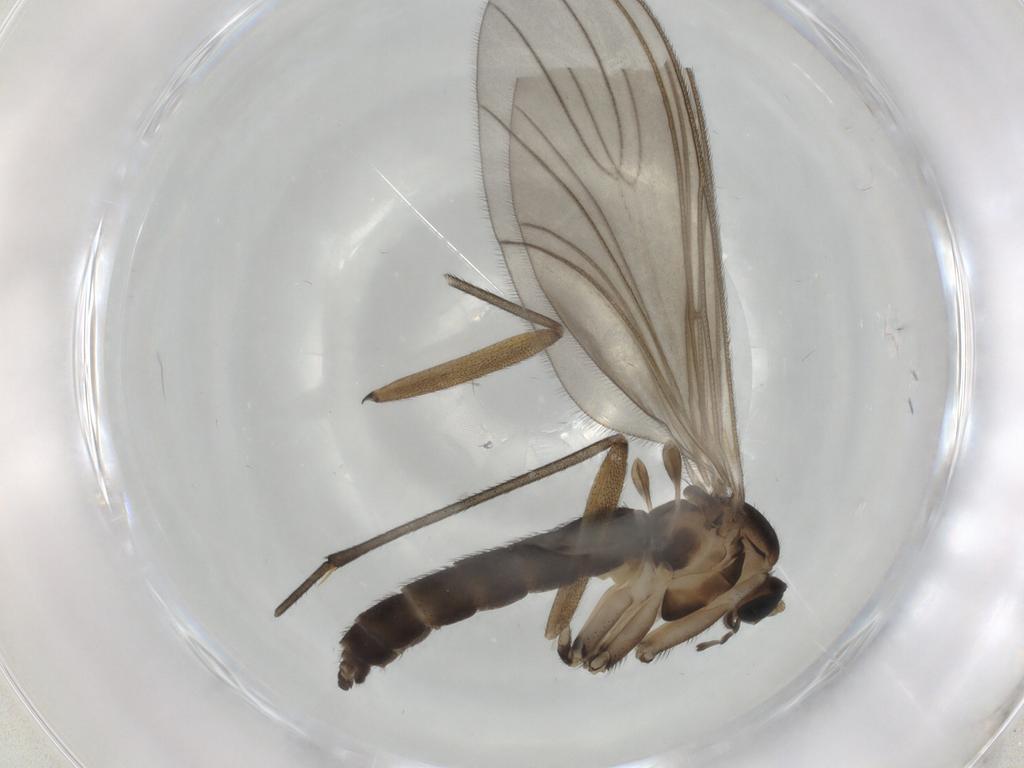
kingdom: Animalia
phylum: Arthropoda
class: Insecta
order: Diptera
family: Sciaridae
